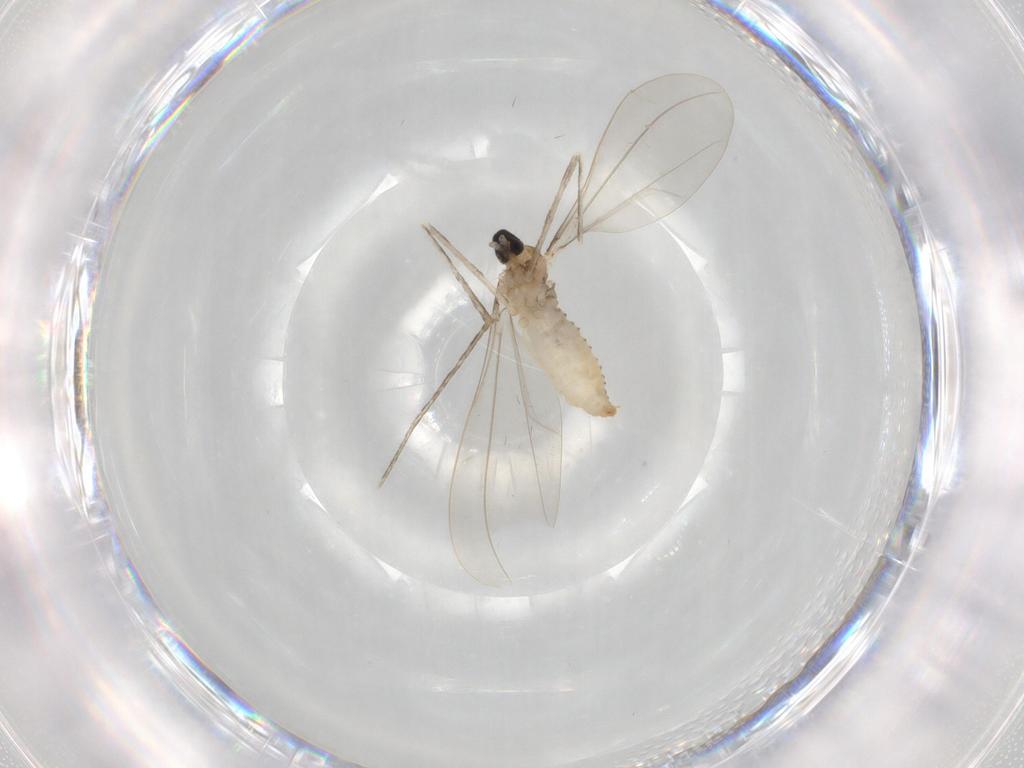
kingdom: Animalia
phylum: Arthropoda
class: Insecta
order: Diptera
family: Cecidomyiidae
